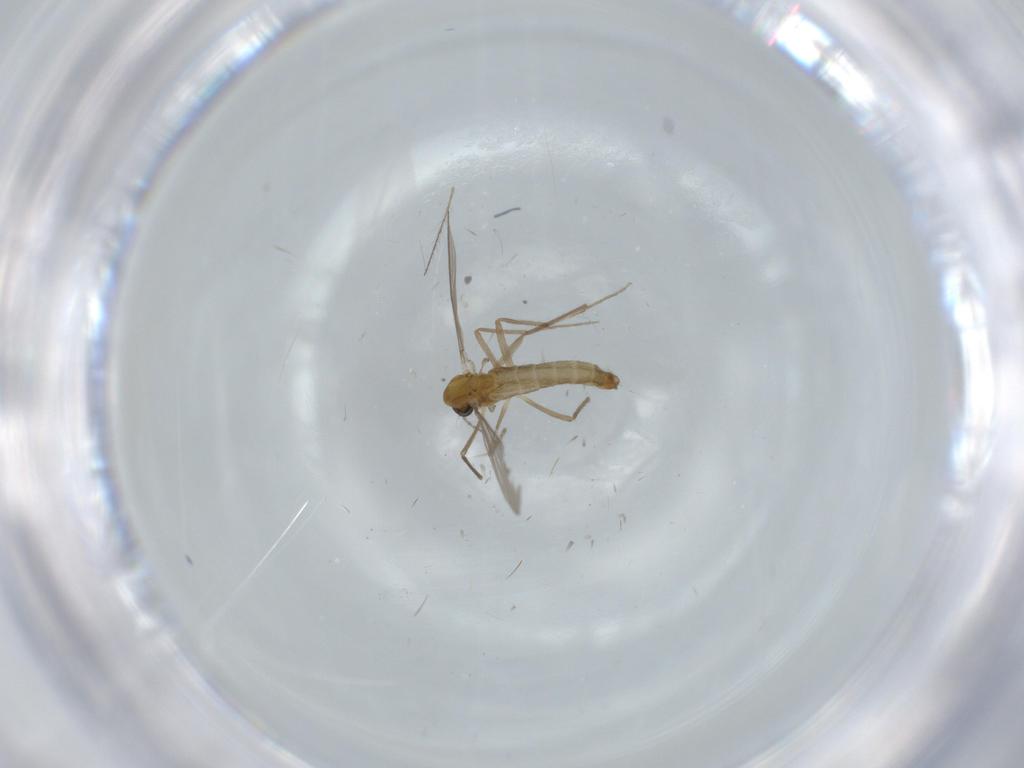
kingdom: Animalia
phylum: Arthropoda
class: Insecta
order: Diptera
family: Chironomidae
